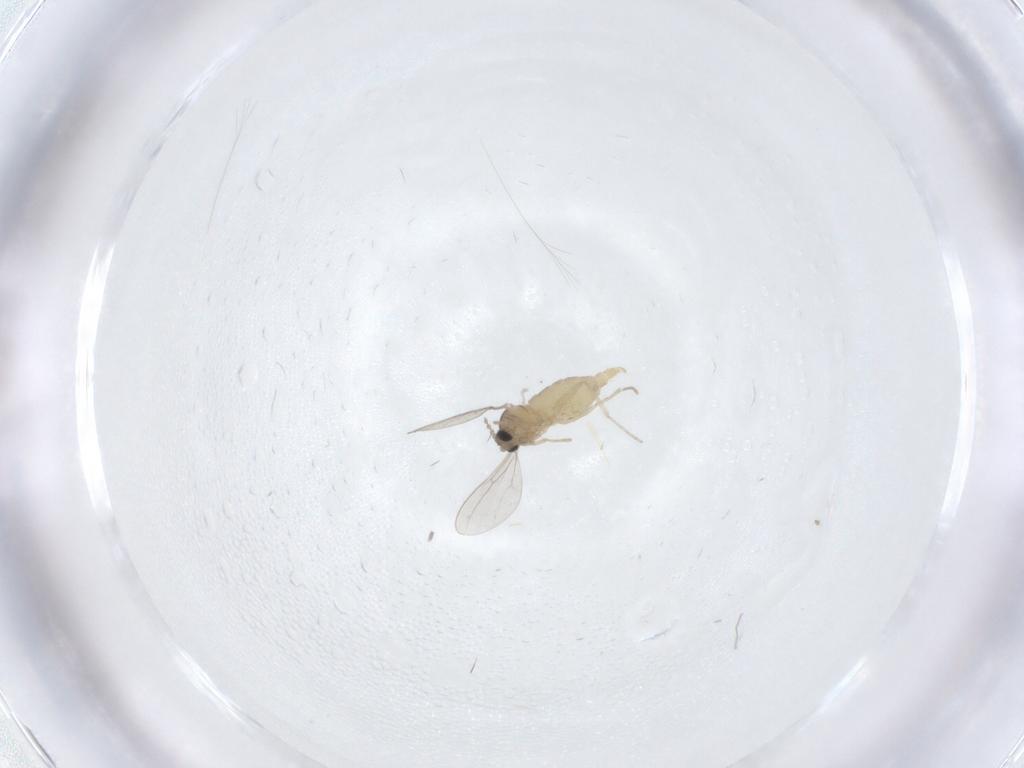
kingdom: Animalia
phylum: Arthropoda
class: Insecta
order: Diptera
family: Cecidomyiidae
